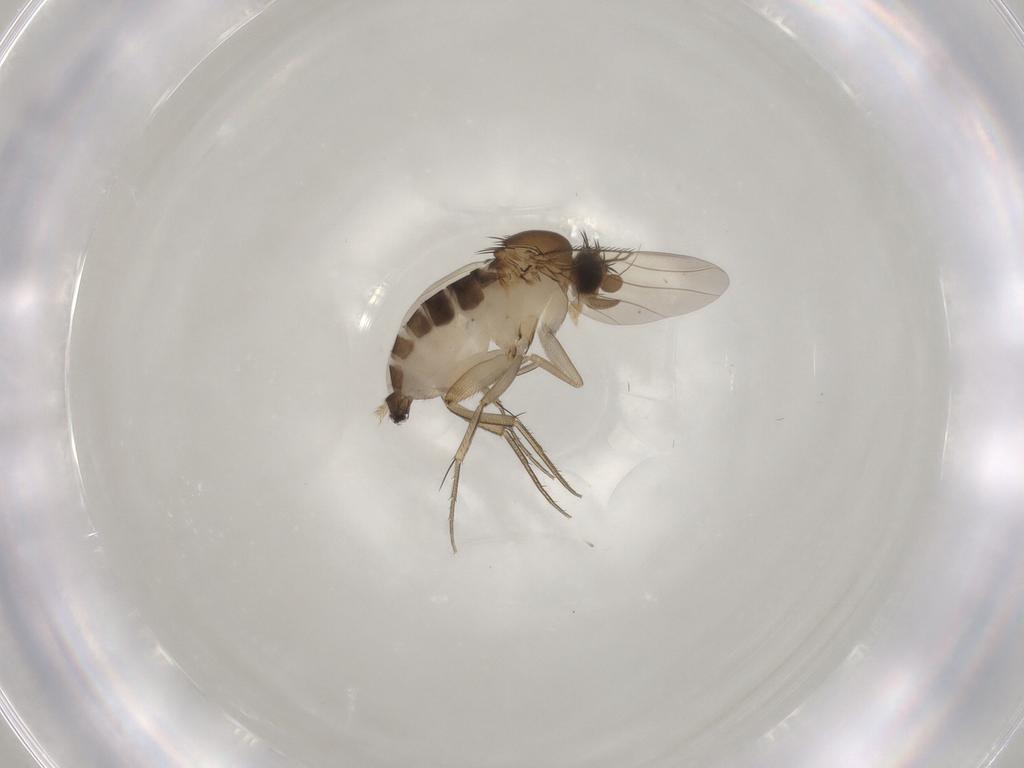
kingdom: Animalia
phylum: Arthropoda
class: Insecta
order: Diptera
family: Phoridae
